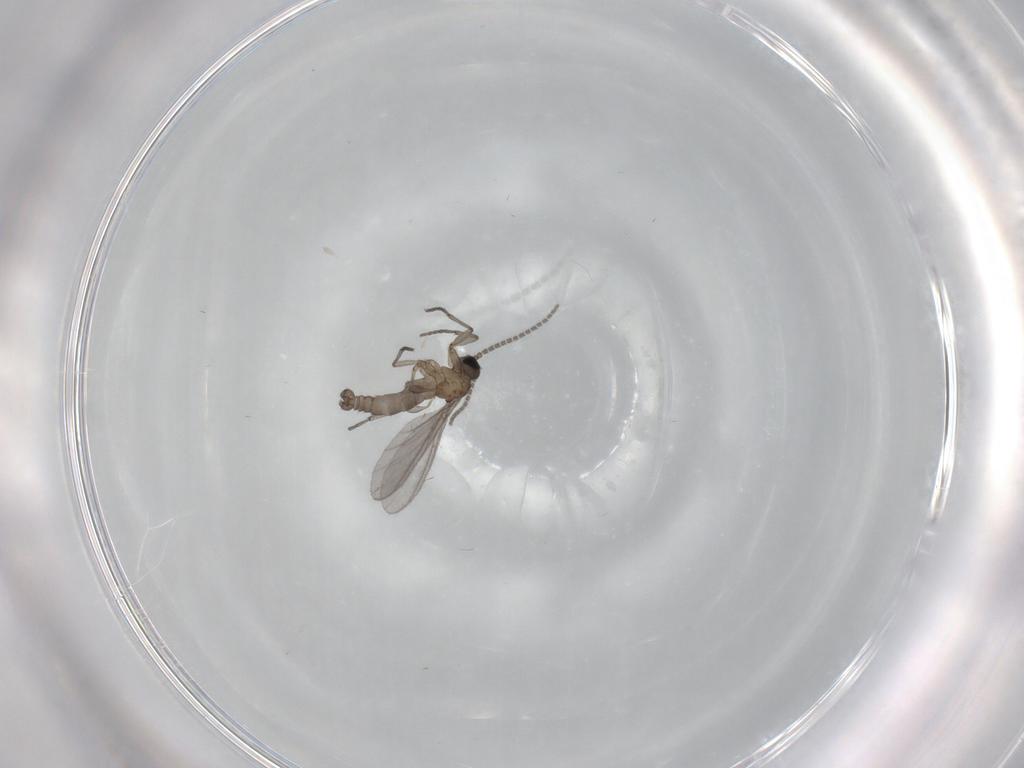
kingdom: Animalia
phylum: Arthropoda
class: Insecta
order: Diptera
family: Sciaridae
